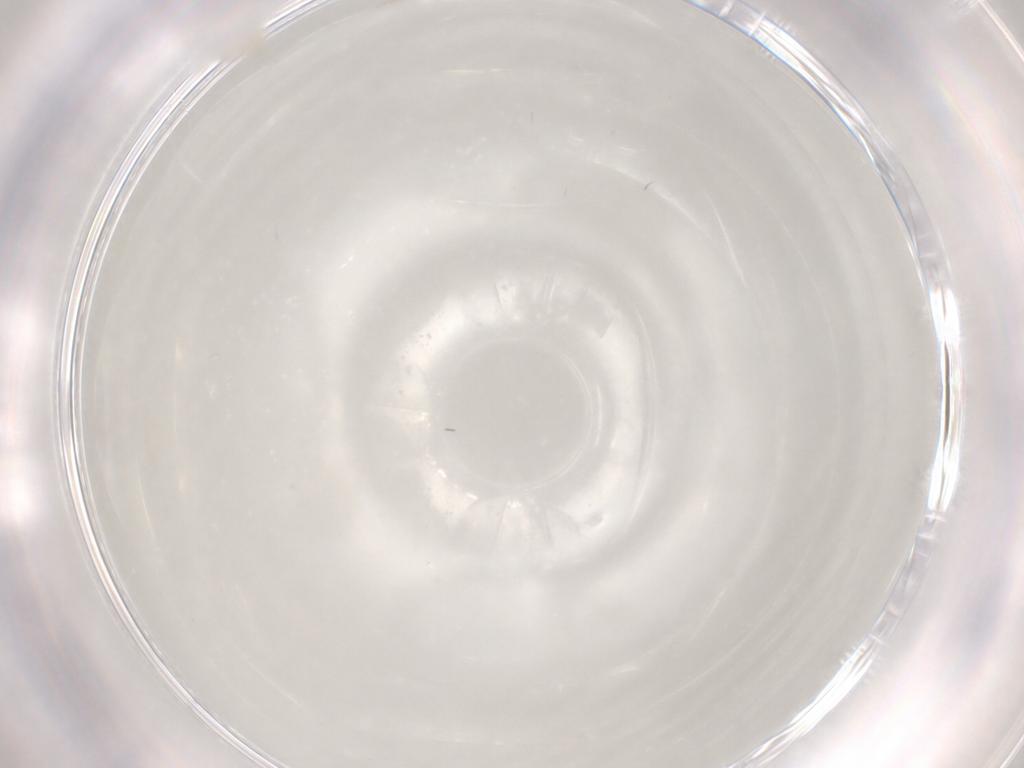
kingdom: Animalia
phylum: Arthropoda
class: Arachnida
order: Trombidiformes
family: Anystidae
